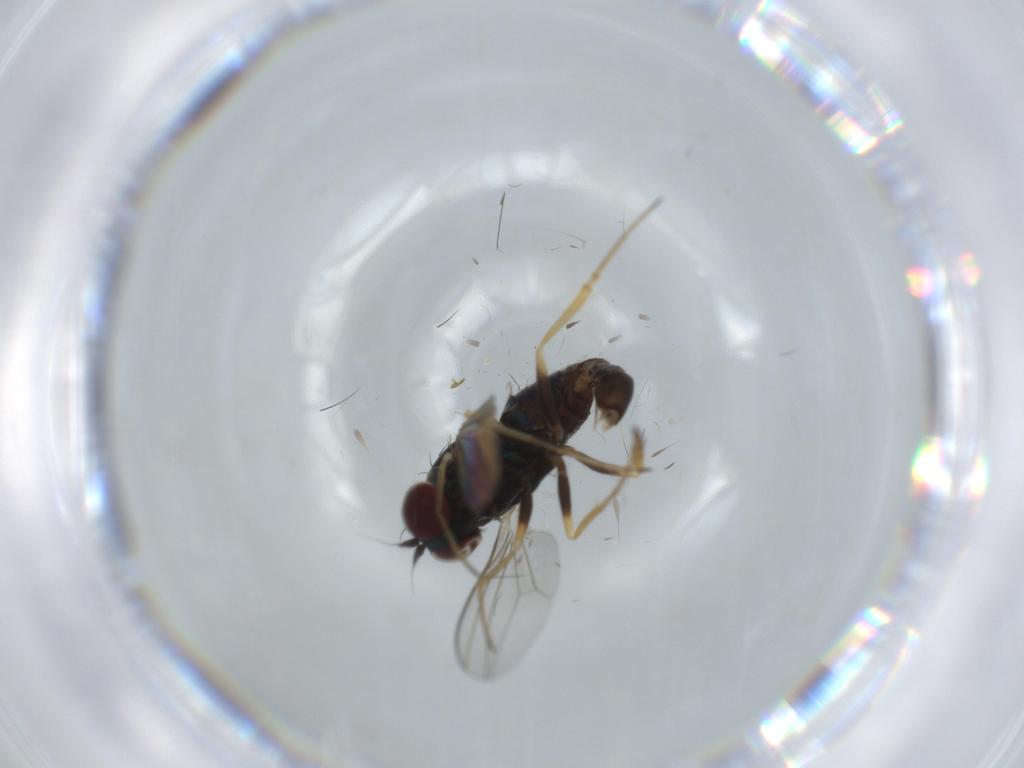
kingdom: Animalia
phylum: Arthropoda
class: Insecta
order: Diptera
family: Dolichopodidae
